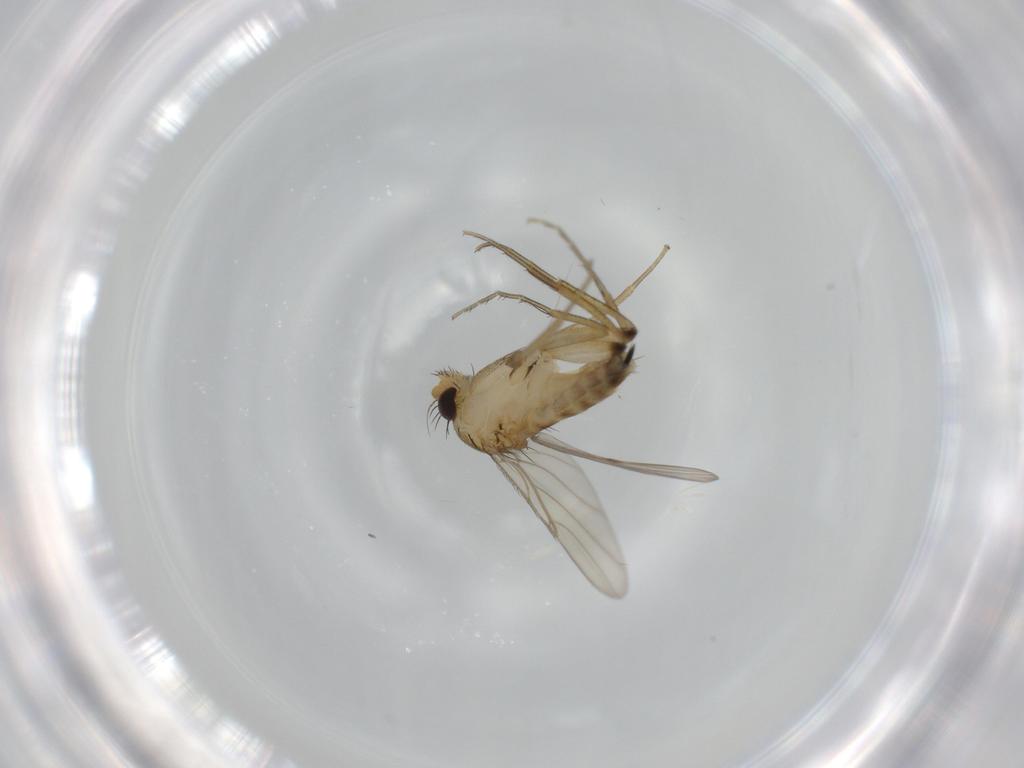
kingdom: Animalia
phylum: Arthropoda
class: Insecta
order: Diptera
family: Phoridae
